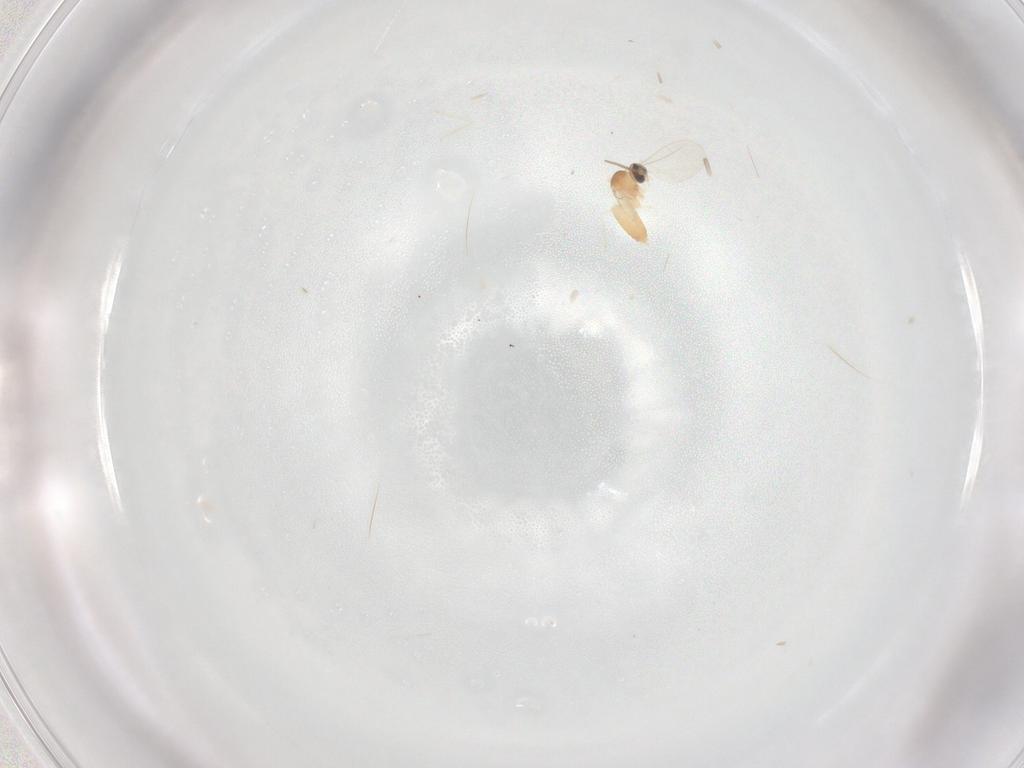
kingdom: Animalia
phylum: Arthropoda
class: Insecta
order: Diptera
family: Cecidomyiidae
